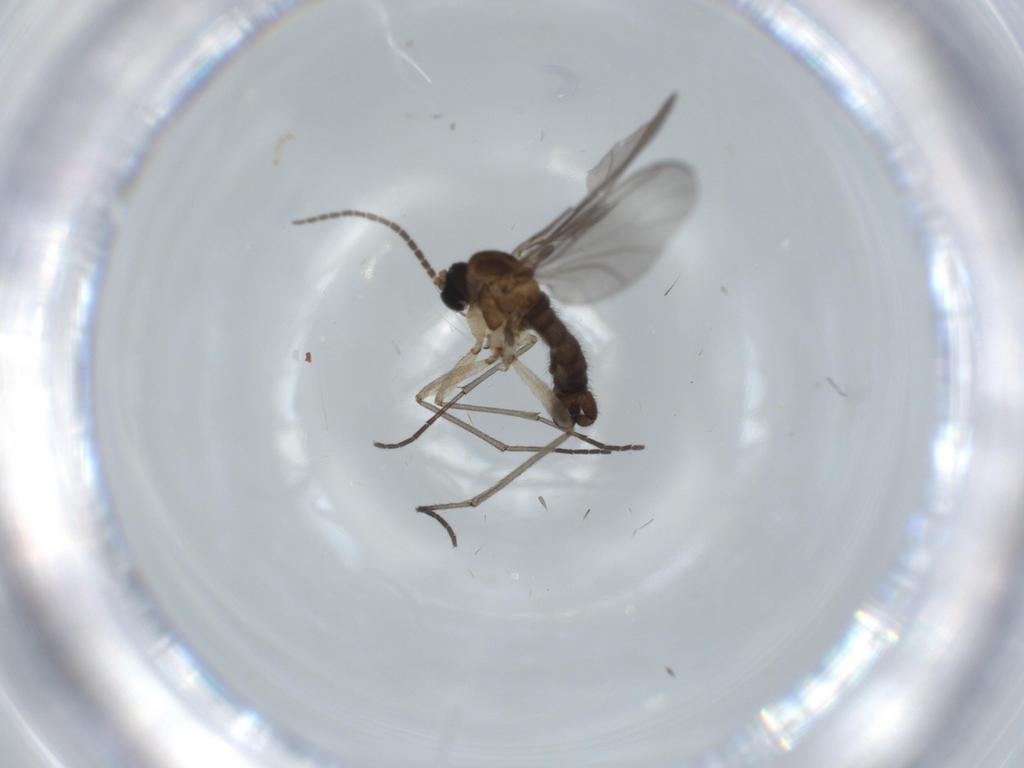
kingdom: Animalia
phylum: Arthropoda
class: Insecta
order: Diptera
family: Sciaridae
